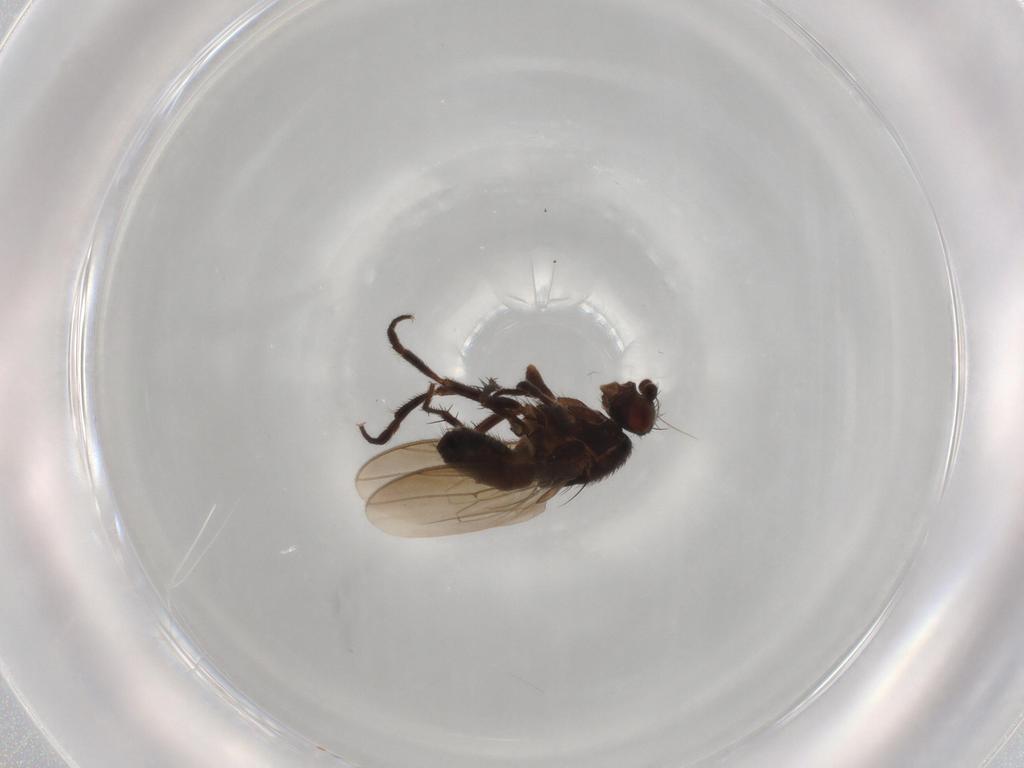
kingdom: Animalia
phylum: Arthropoda
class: Insecta
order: Diptera
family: Sphaeroceridae
